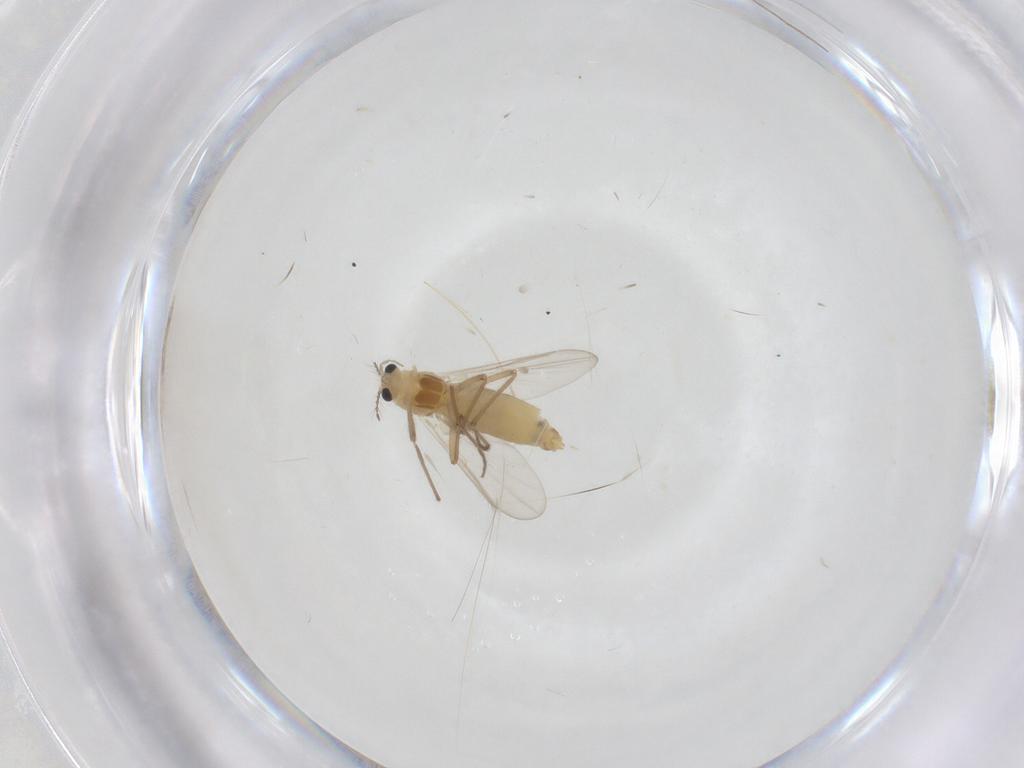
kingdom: Animalia
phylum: Arthropoda
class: Insecta
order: Diptera
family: Chironomidae
